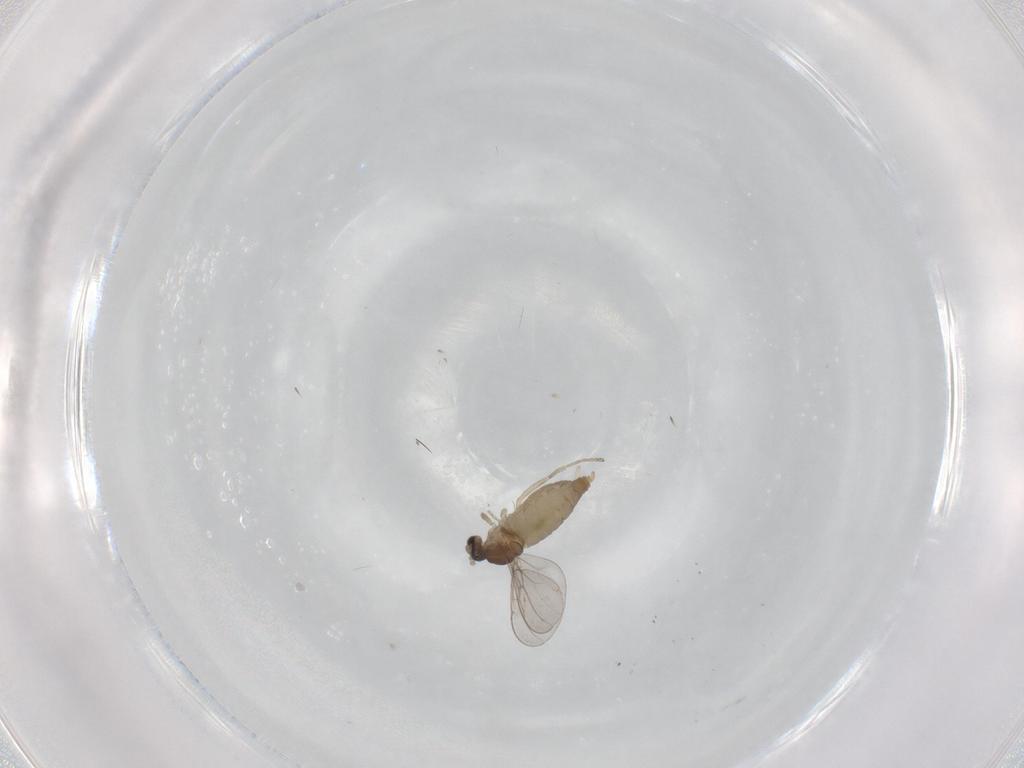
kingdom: Animalia
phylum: Arthropoda
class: Insecta
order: Diptera
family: Cecidomyiidae
